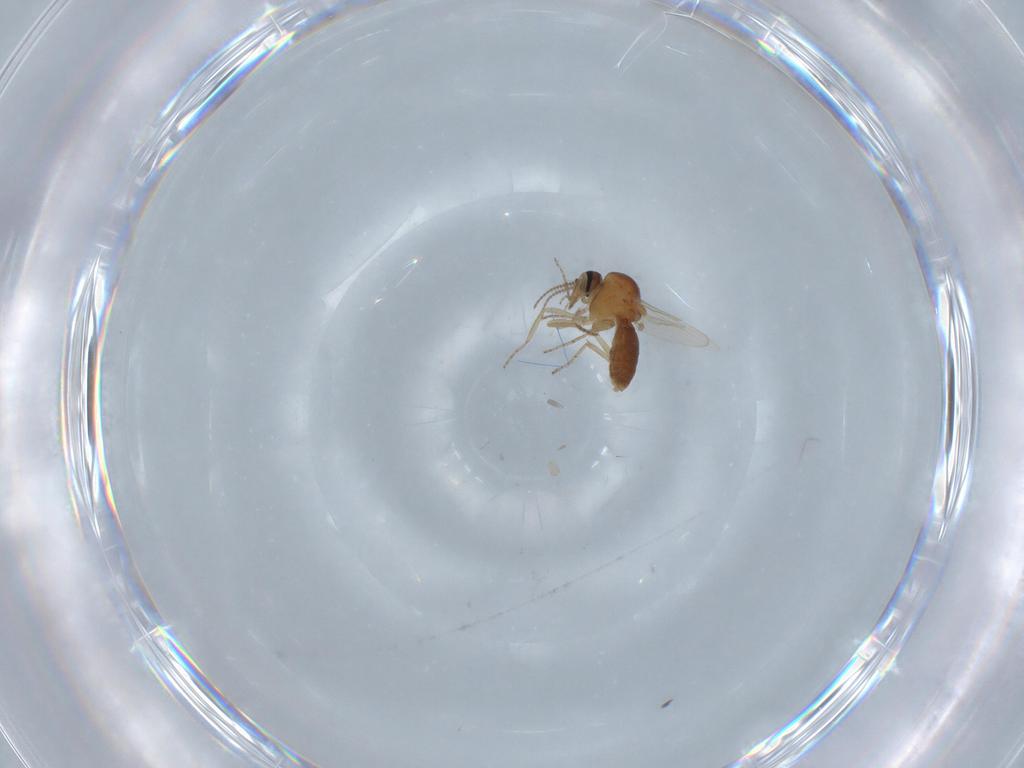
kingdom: Animalia
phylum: Arthropoda
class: Insecta
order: Diptera
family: Ceratopogonidae
